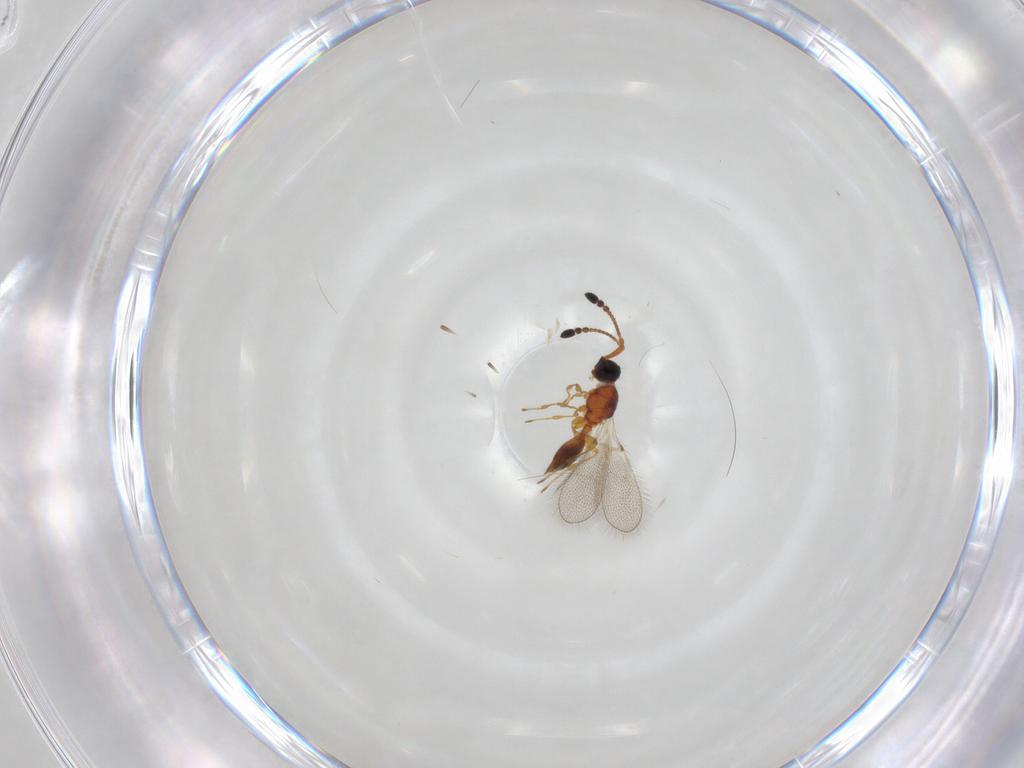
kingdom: Animalia
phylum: Arthropoda
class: Insecta
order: Hymenoptera
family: Diapriidae
